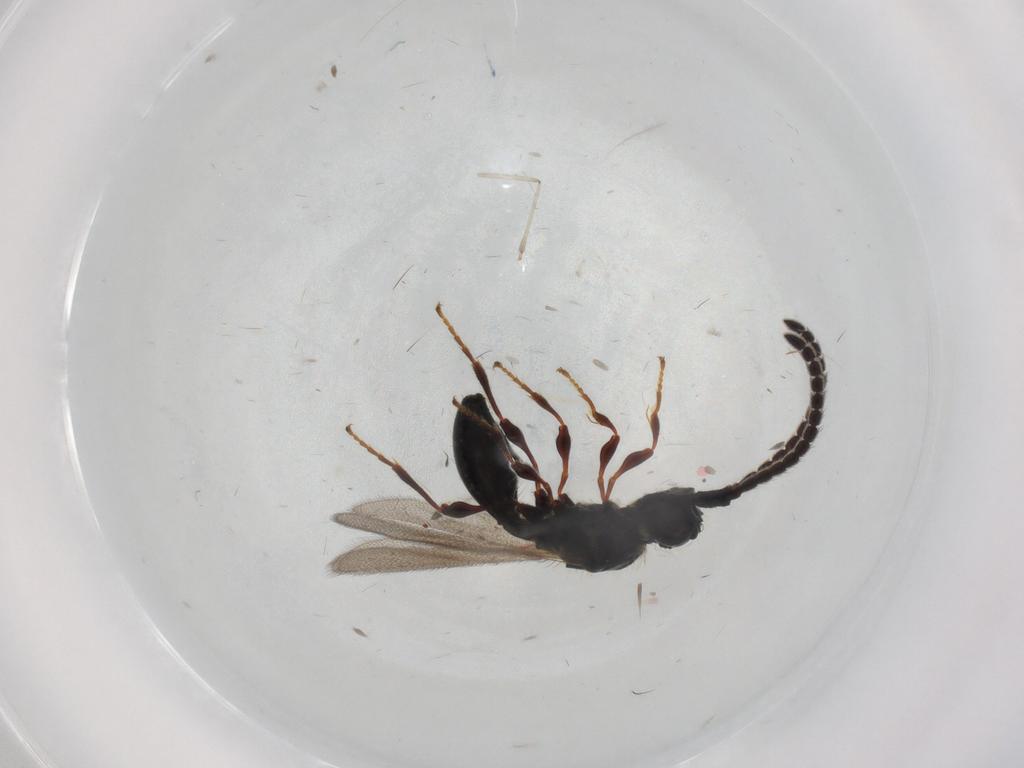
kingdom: Animalia
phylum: Arthropoda
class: Insecta
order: Hymenoptera
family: Diapriidae
